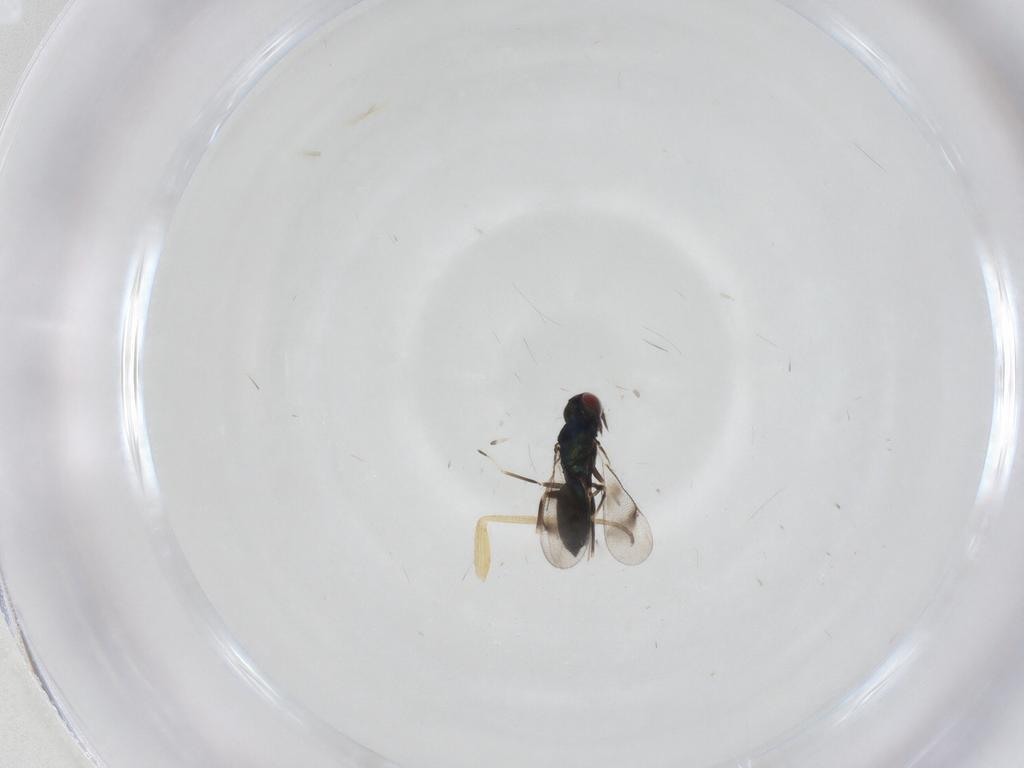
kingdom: Animalia
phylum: Arthropoda
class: Insecta
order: Hymenoptera
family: Eulophidae
